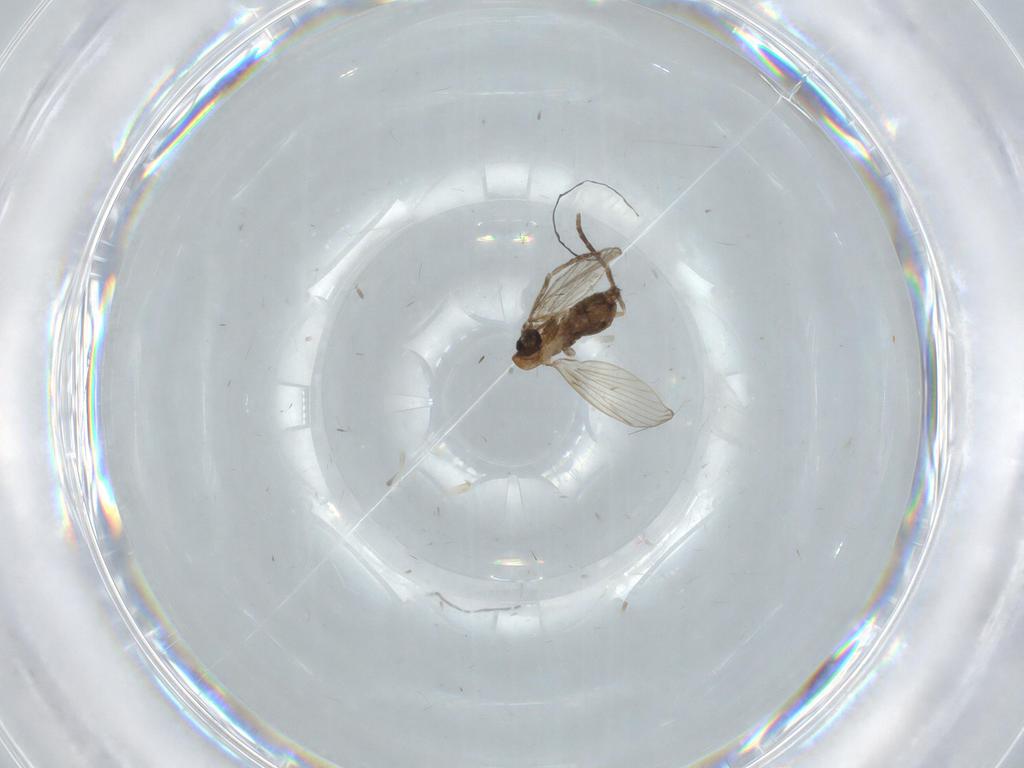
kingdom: Animalia
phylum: Arthropoda
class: Insecta
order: Diptera
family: Psychodidae
